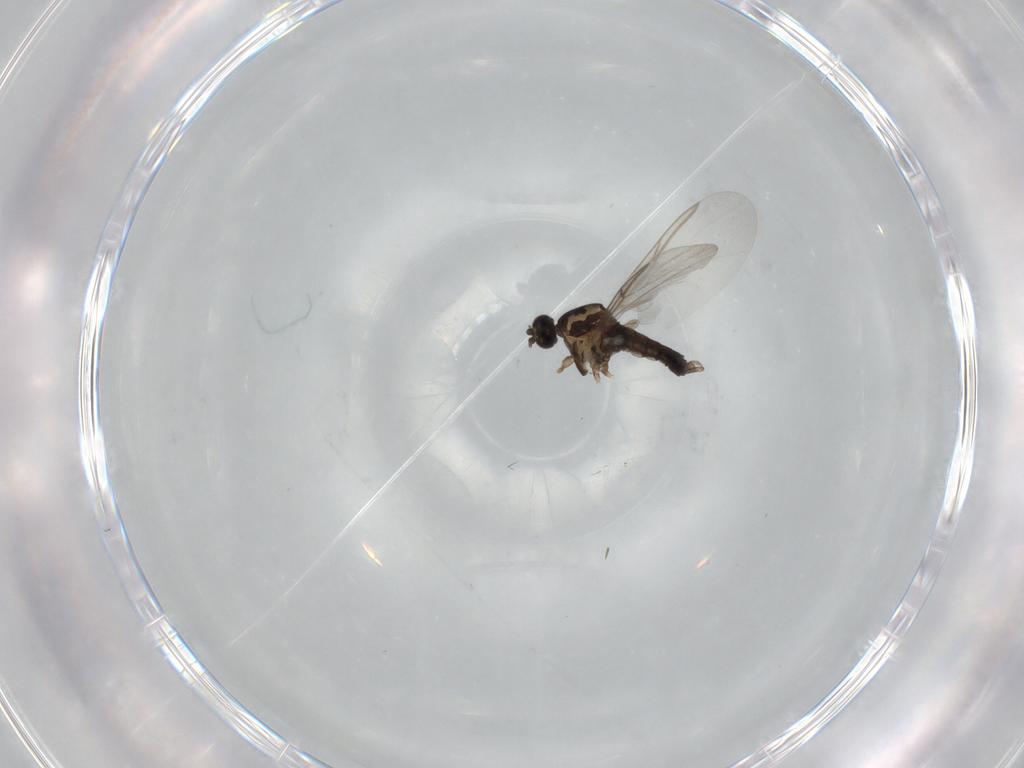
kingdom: Animalia
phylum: Arthropoda
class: Insecta
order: Diptera
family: Cecidomyiidae
